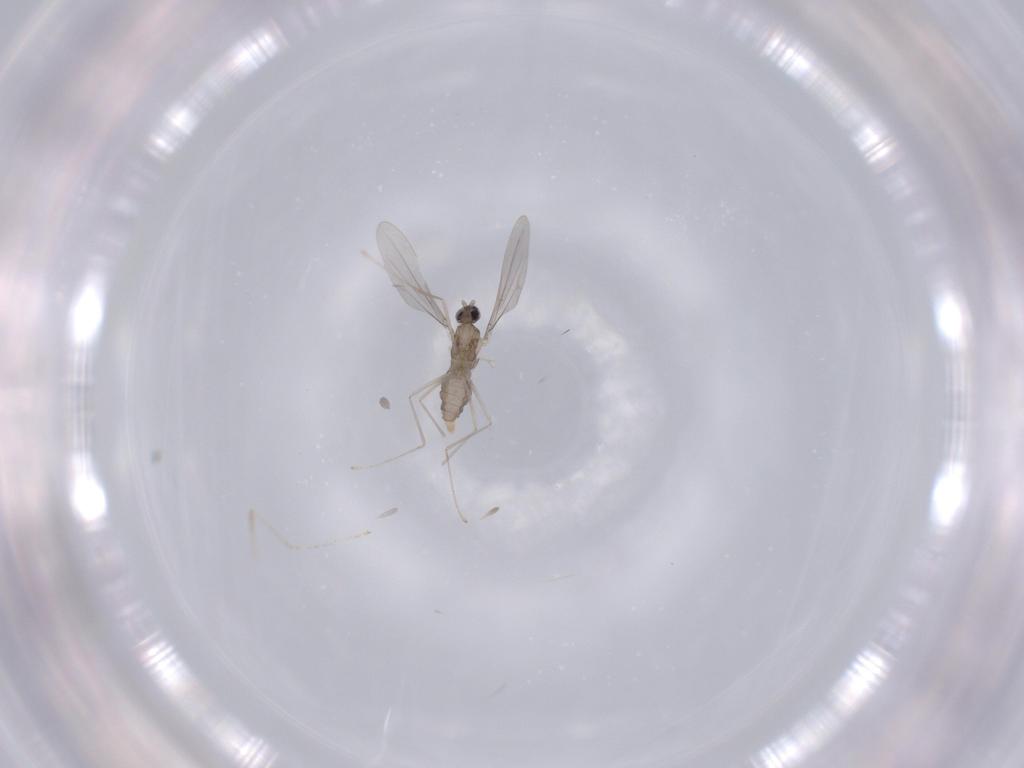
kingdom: Animalia
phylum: Arthropoda
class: Insecta
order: Diptera
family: Chironomidae
